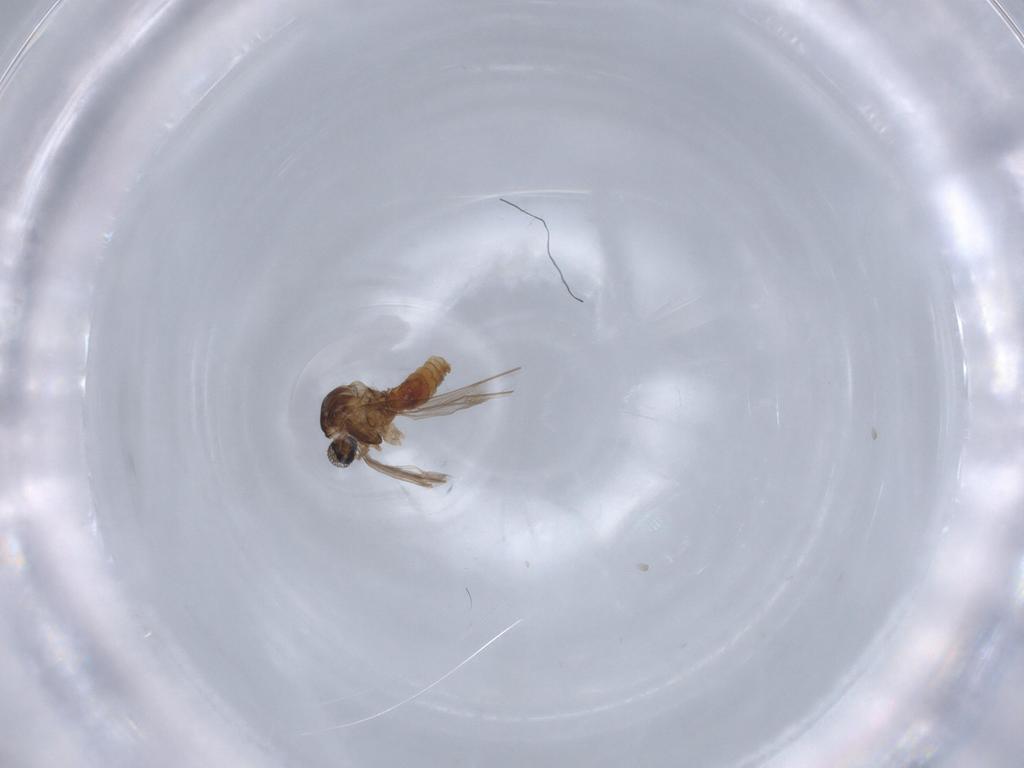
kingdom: Animalia
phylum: Arthropoda
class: Insecta
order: Diptera
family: Cecidomyiidae
